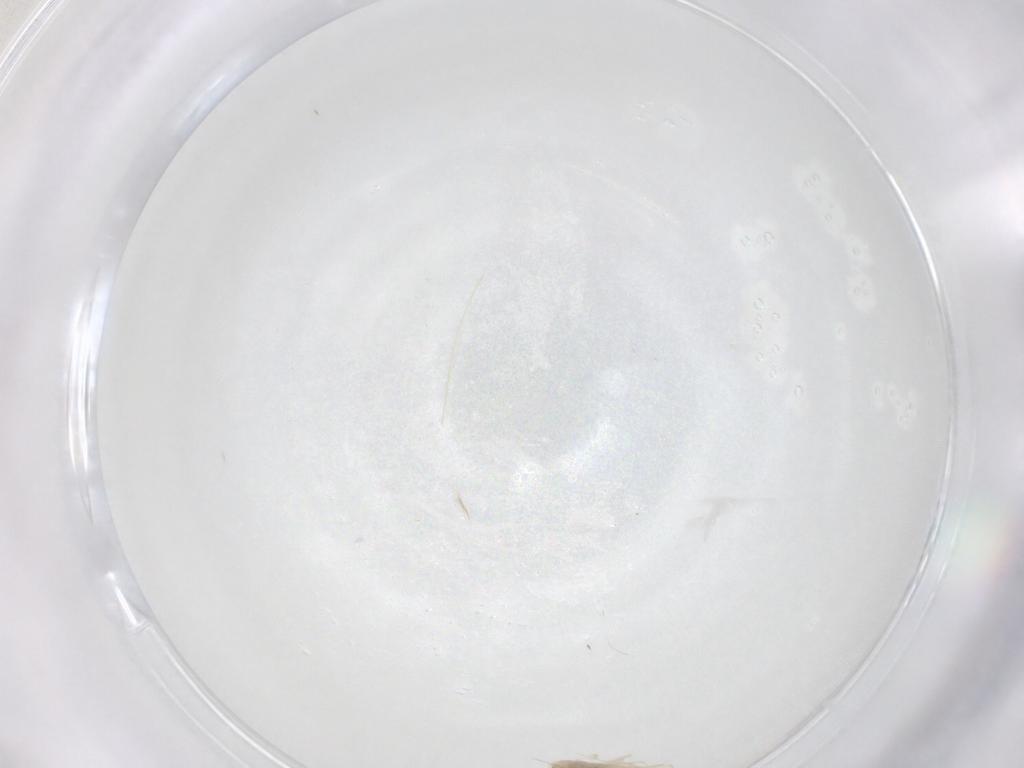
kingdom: Animalia
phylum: Arthropoda
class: Insecta
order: Diptera
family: Cecidomyiidae
